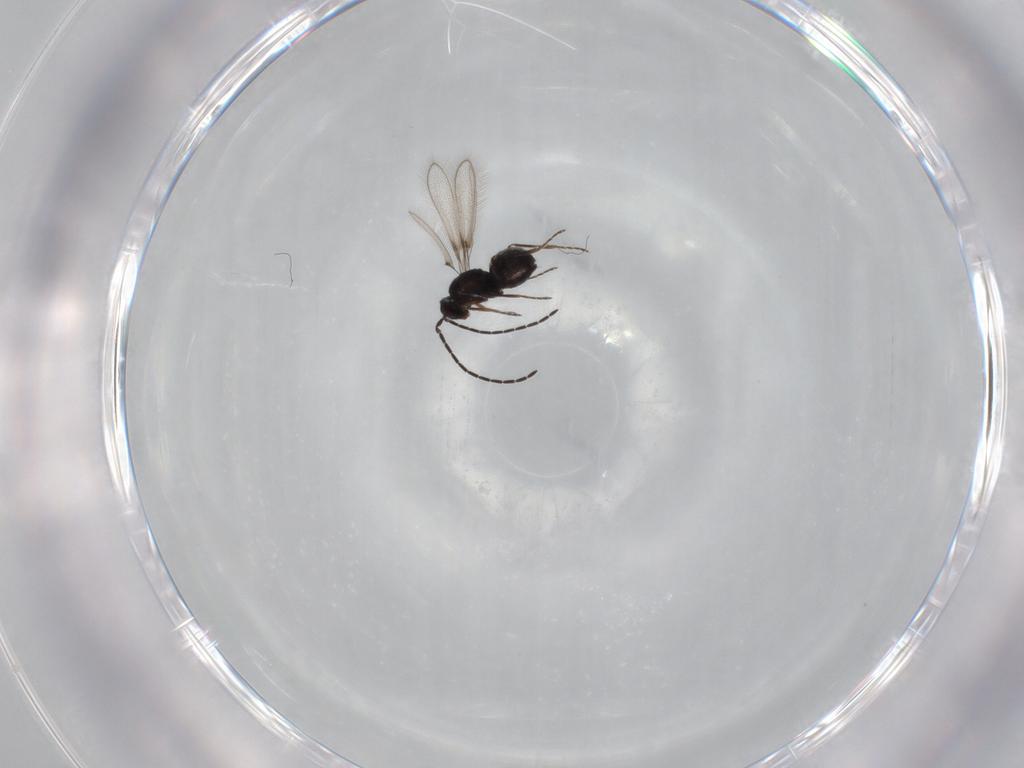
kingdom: Animalia
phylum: Arthropoda
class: Insecta
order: Hymenoptera
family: Mymaridae
